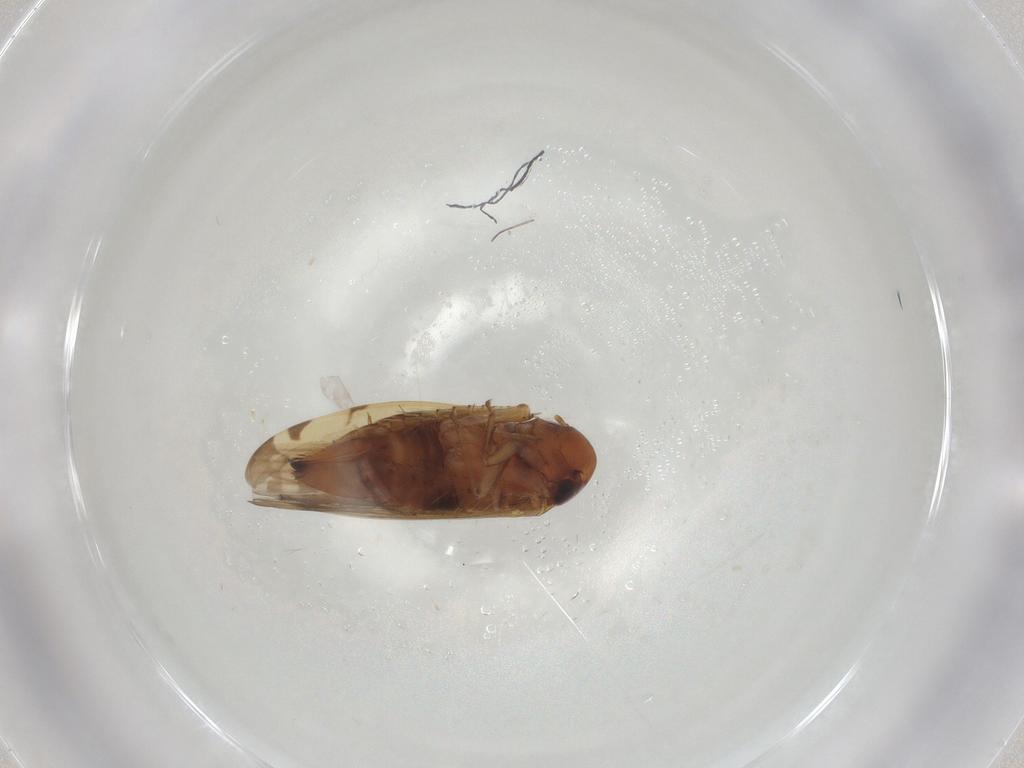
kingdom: Animalia
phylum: Arthropoda
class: Insecta
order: Hemiptera
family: Cicadellidae
